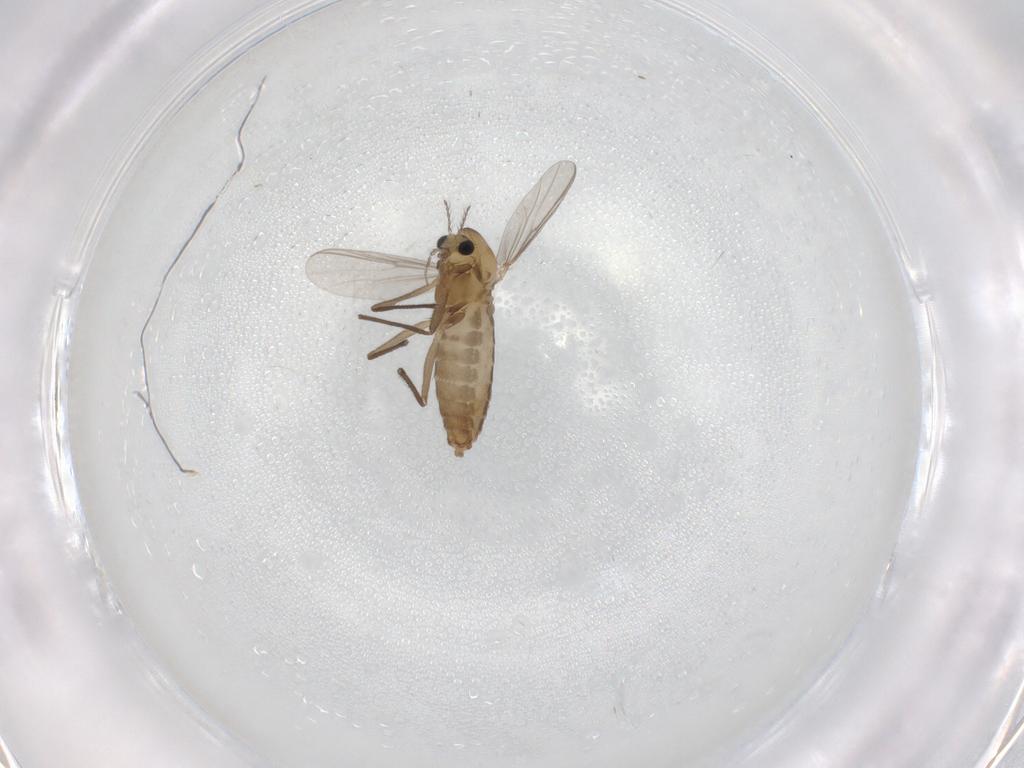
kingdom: Animalia
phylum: Arthropoda
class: Insecta
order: Diptera
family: Chironomidae
